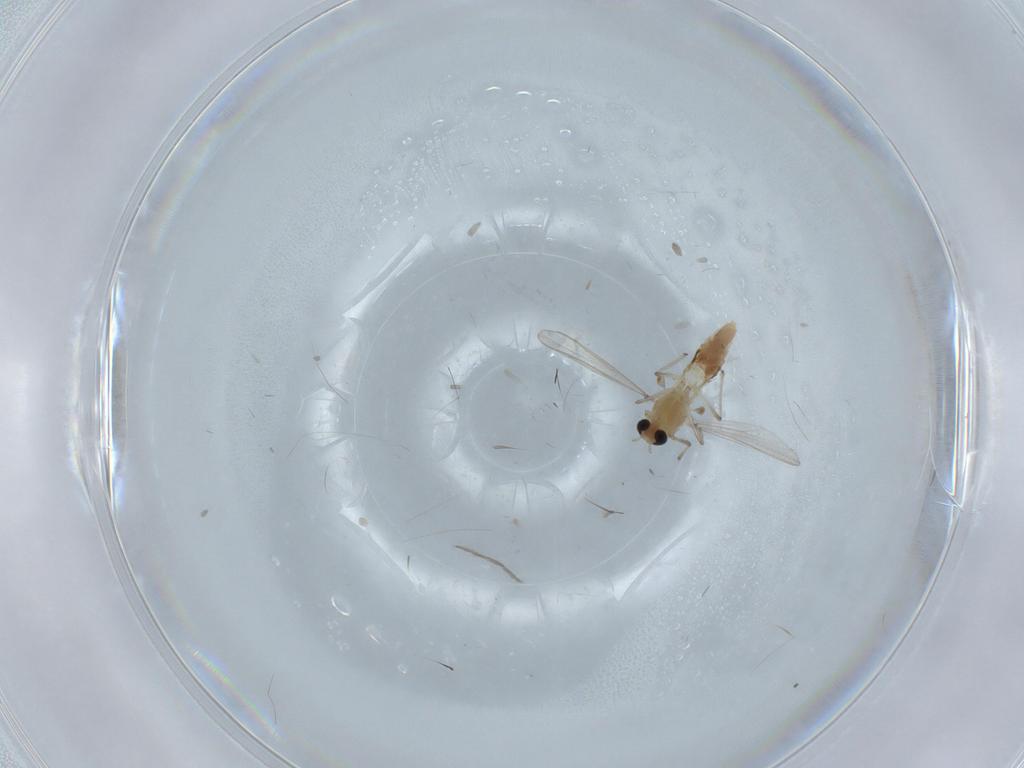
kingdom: Animalia
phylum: Arthropoda
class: Insecta
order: Diptera
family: Chironomidae
